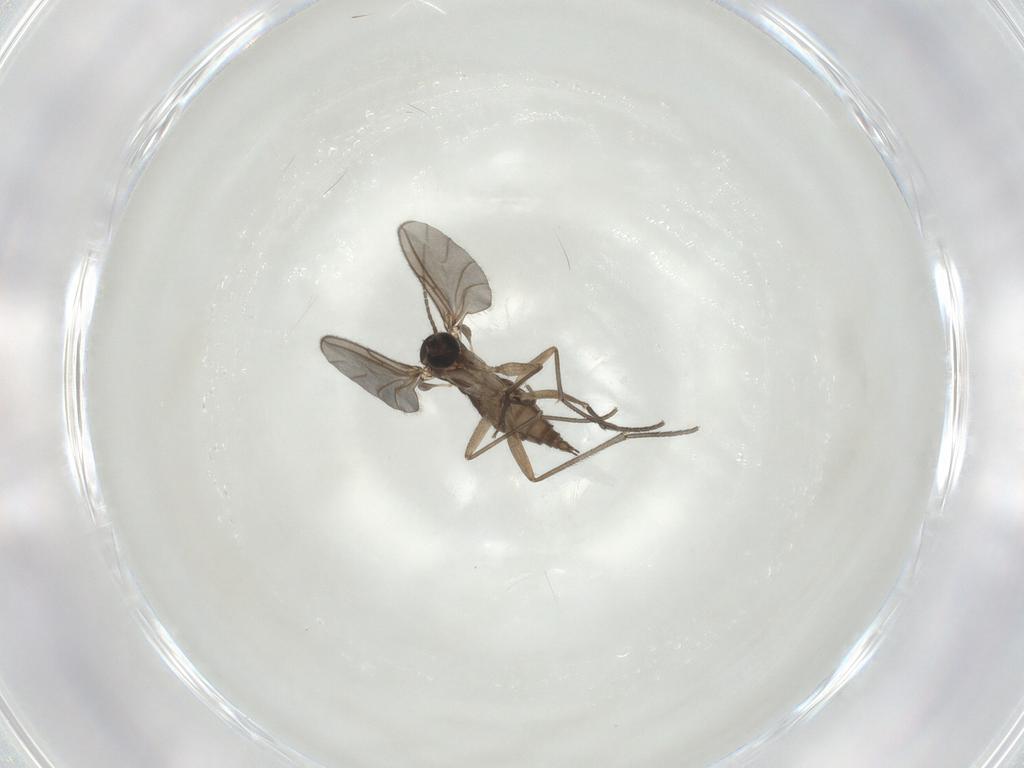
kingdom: Animalia
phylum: Arthropoda
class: Insecta
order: Diptera
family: Sciaridae
